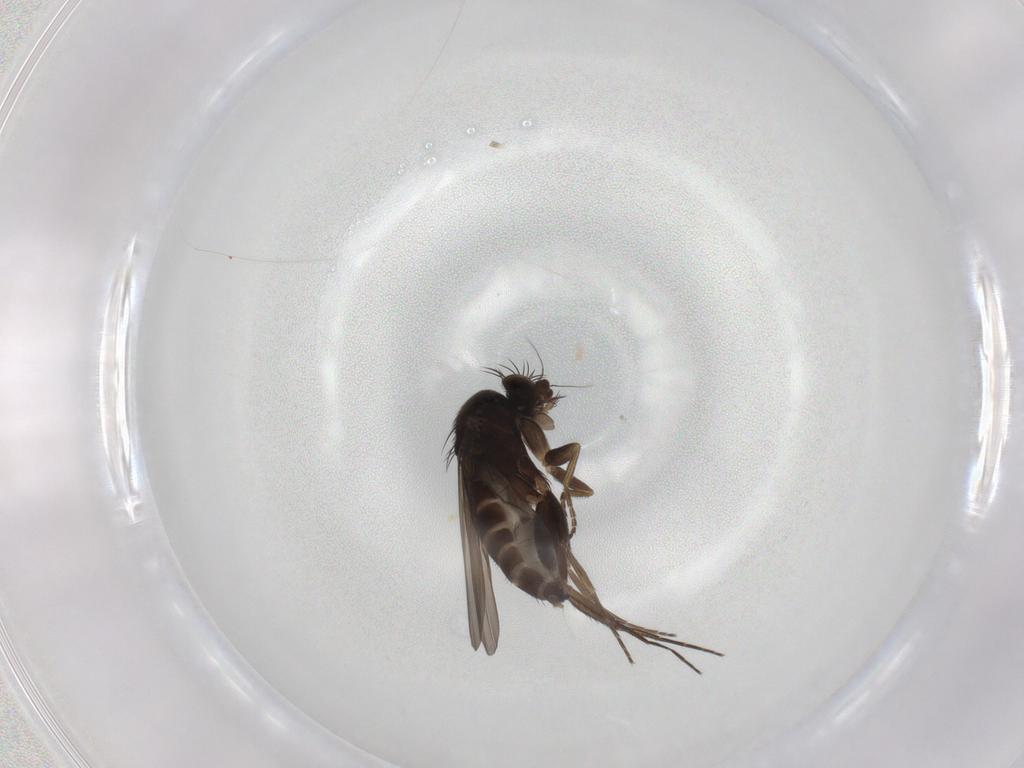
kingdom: Animalia
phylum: Arthropoda
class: Insecta
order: Diptera
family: Phoridae
